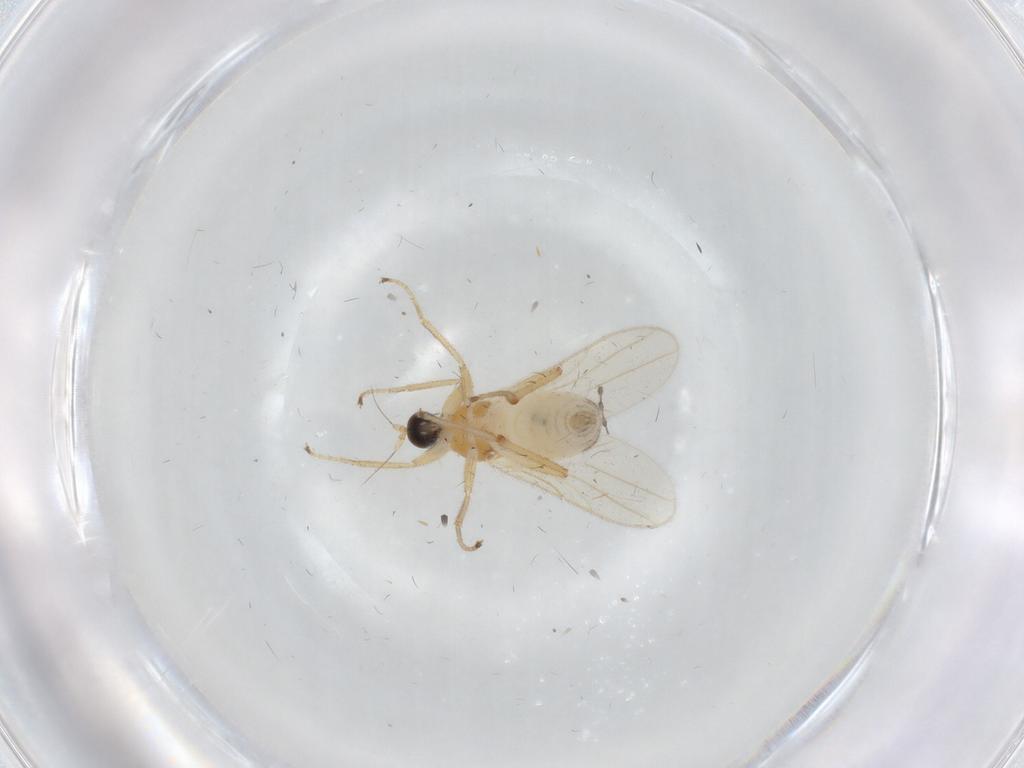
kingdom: Animalia
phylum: Arthropoda
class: Insecta
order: Diptera
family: Hybotidae
